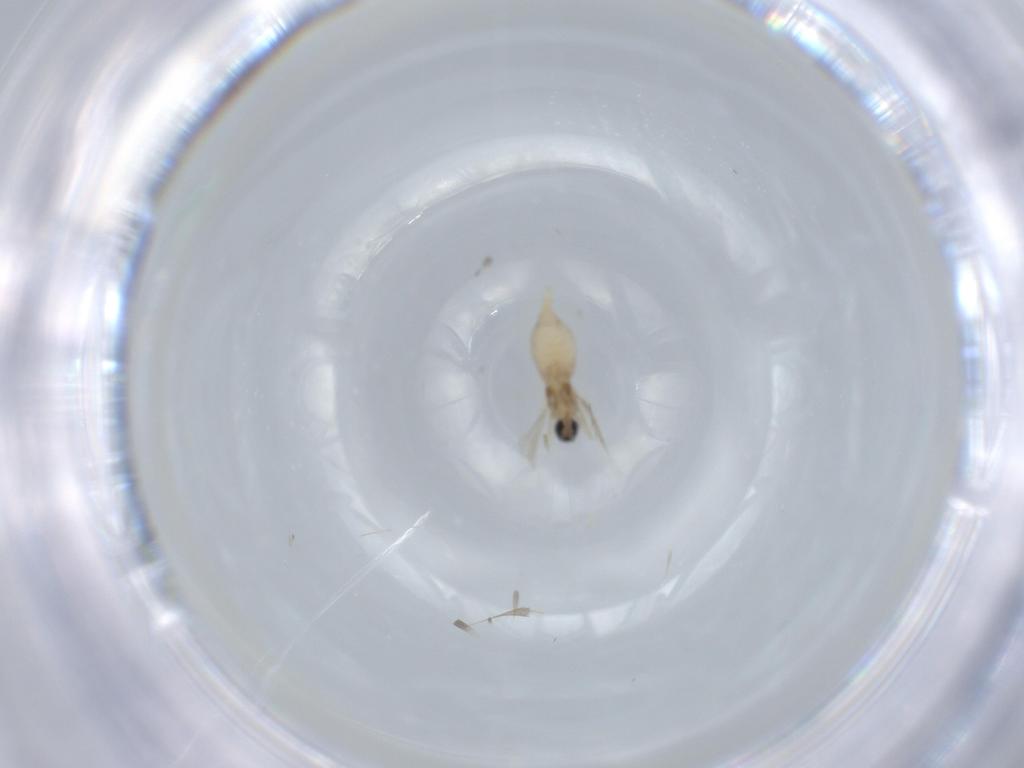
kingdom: Animalia
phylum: Arthropoda
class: Insecta
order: Diptera
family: Cecidomyiidae
